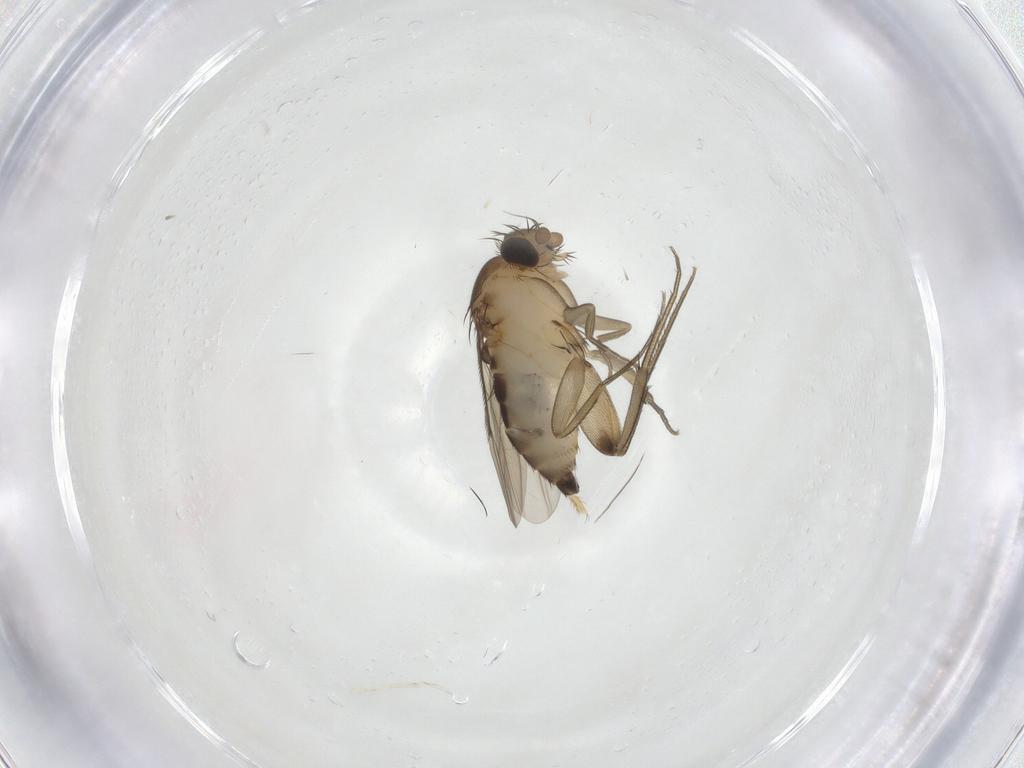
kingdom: Animalia
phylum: Arthropoda
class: Insecta
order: Diptera
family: Phoridae
